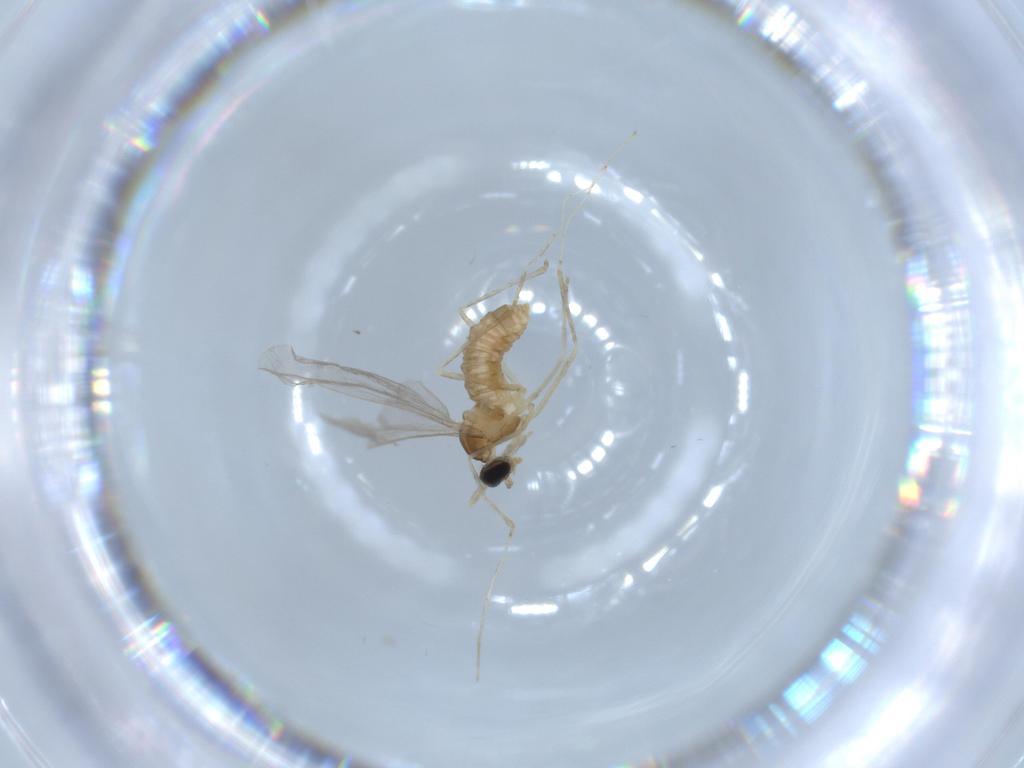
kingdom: Animalia
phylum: Arthropoda
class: Insecta
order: Diptera
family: Cecidomyiidae
